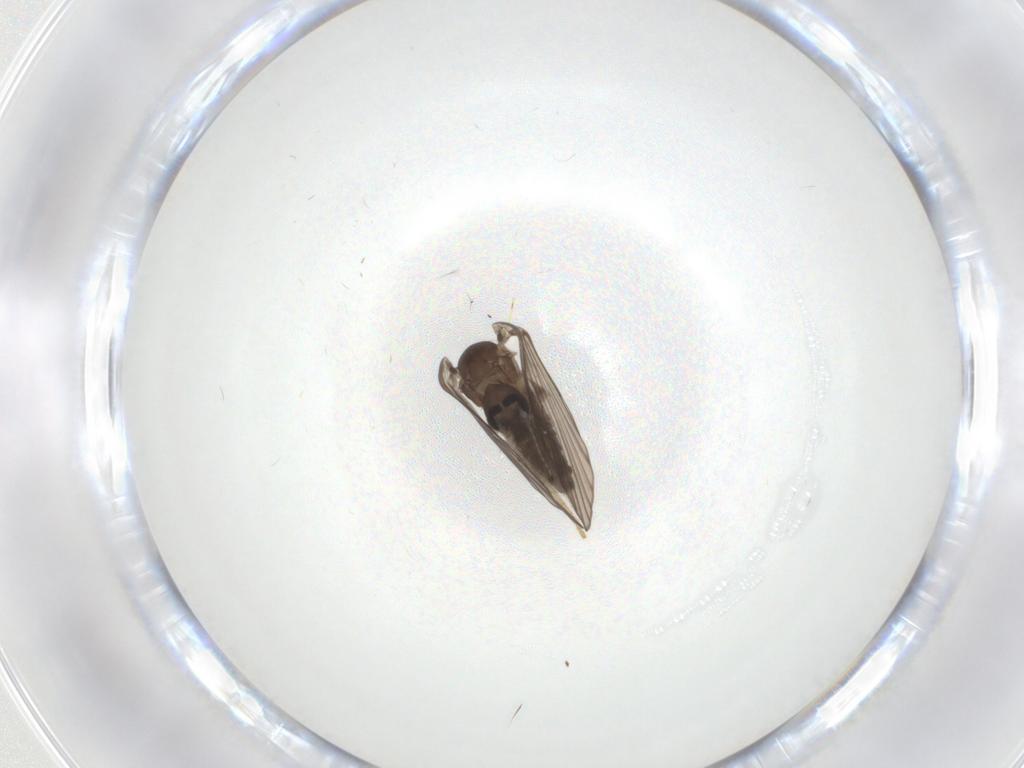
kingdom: Animalia
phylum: Arthropoda
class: Insecta
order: Diptera
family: Psychodidae
